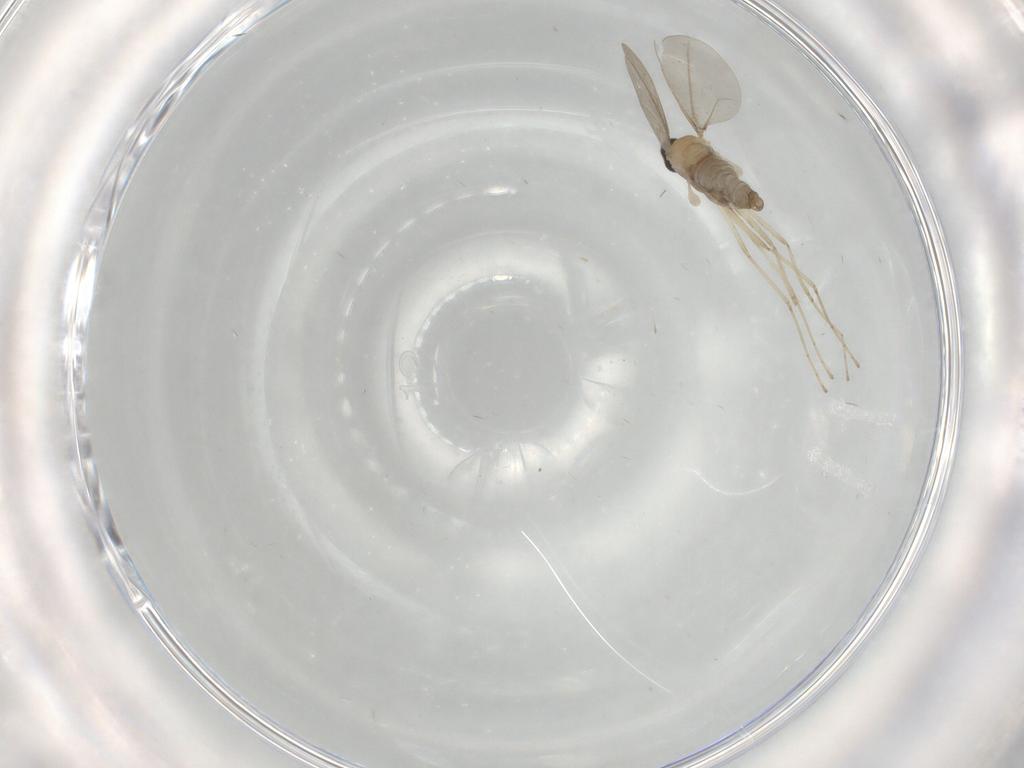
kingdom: Animalia
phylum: Arthropoda
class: Insecta
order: Diptera
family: Cecidomyiidae
